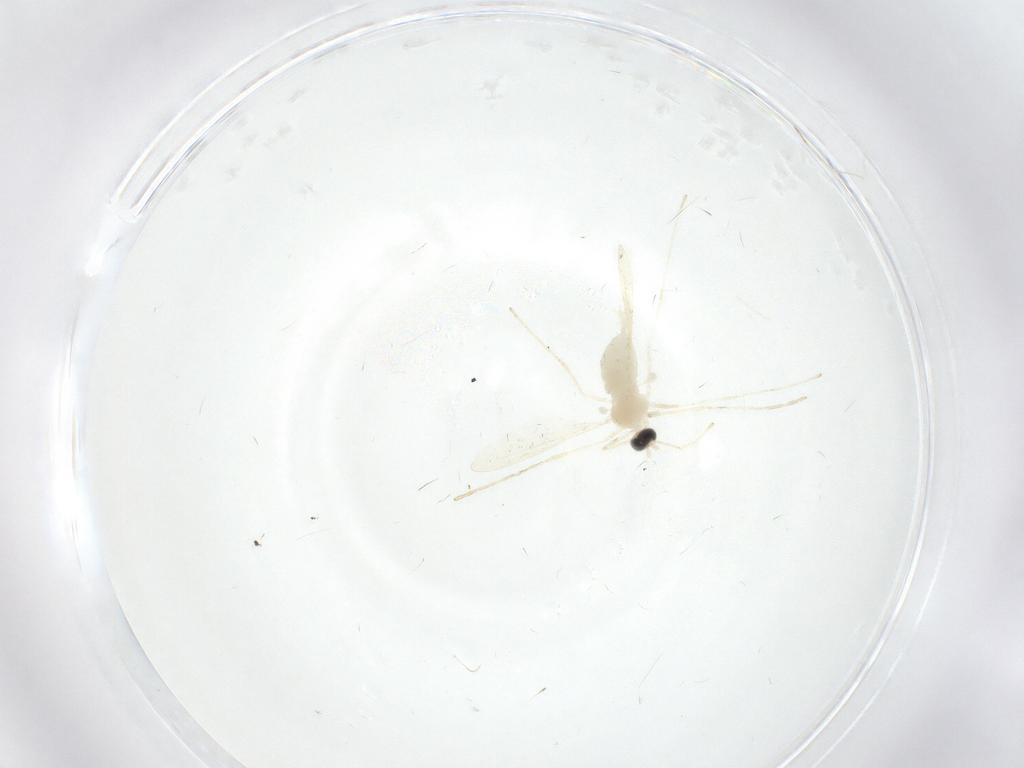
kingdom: Animalia
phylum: Arthropoda
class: Insecta
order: Diptera
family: Cecidomyiidae
